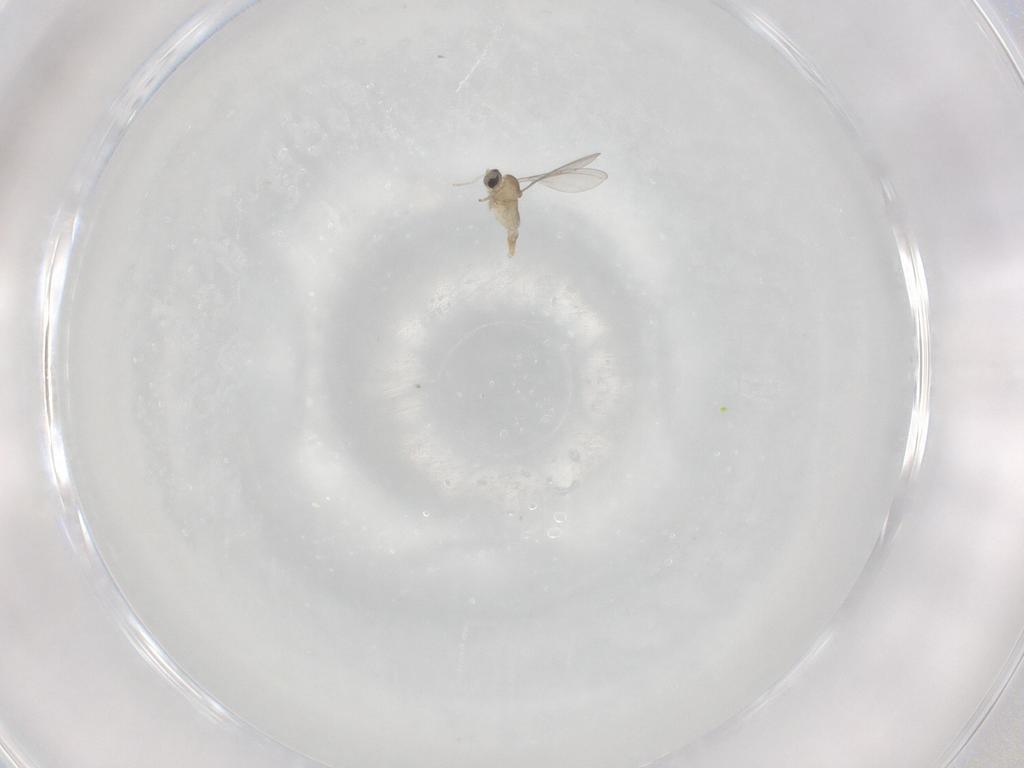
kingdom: Animalia
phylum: Arthropoda
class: Insecta
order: Diptera
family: Cecidomyiidae
